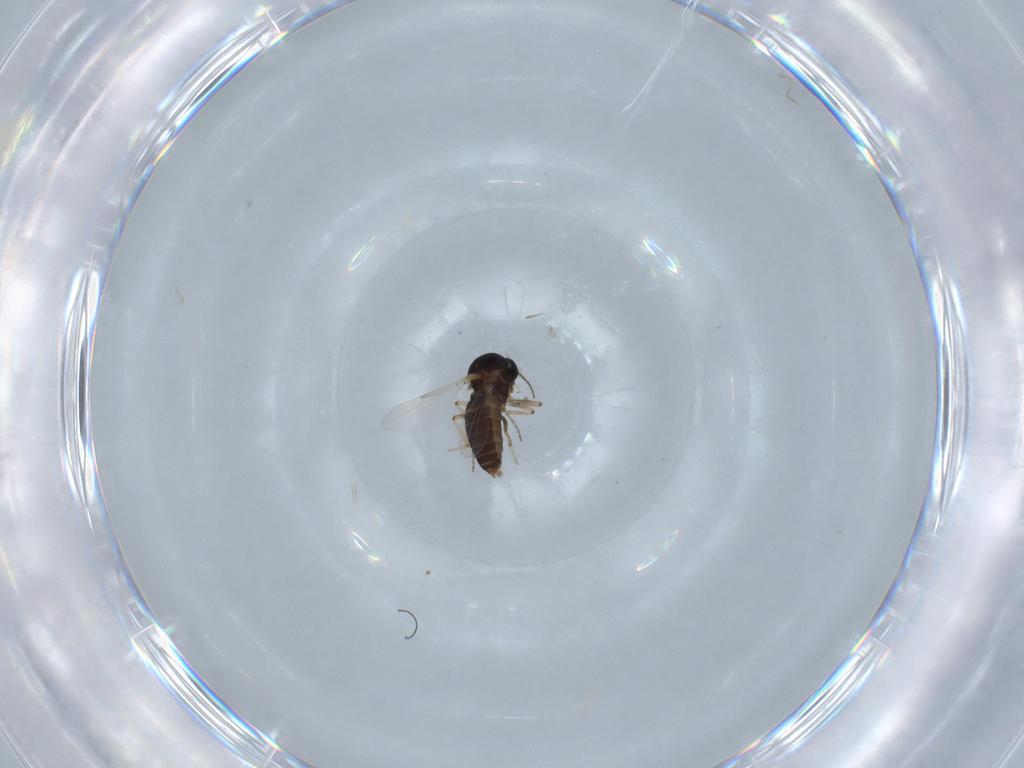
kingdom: Animalia
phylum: Arthropoda
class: Insecta
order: Diptera
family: Ceratopogonidae
